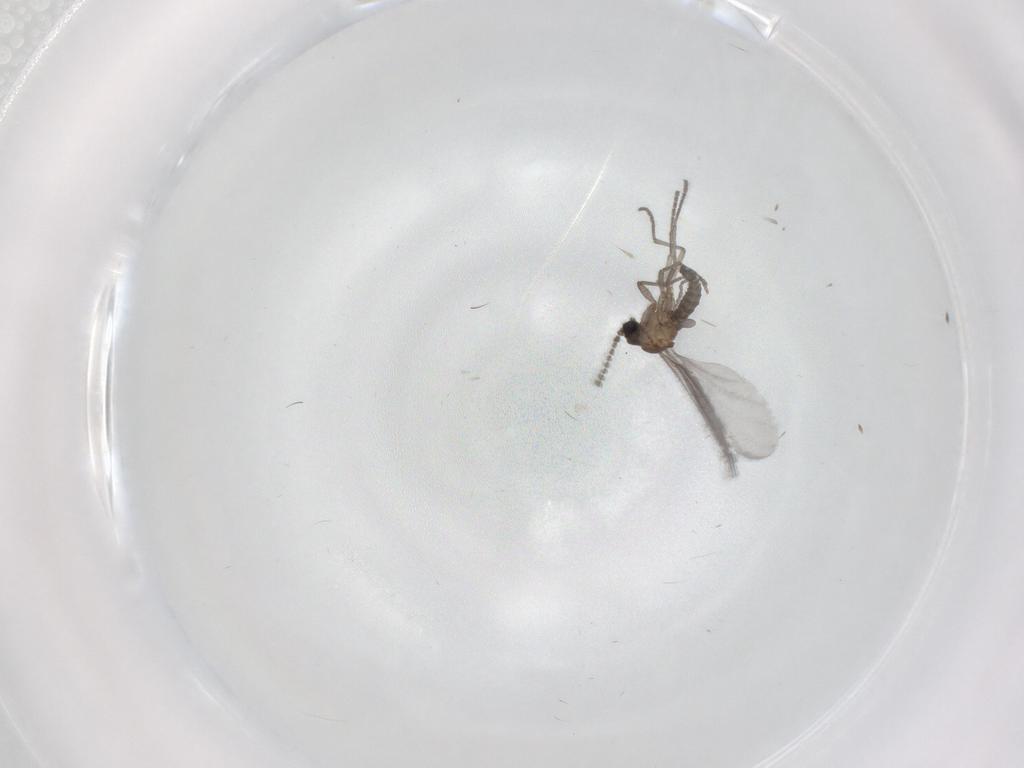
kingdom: Animalia
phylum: Arthropoda
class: Insecta
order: Diptera
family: Sciaridae
